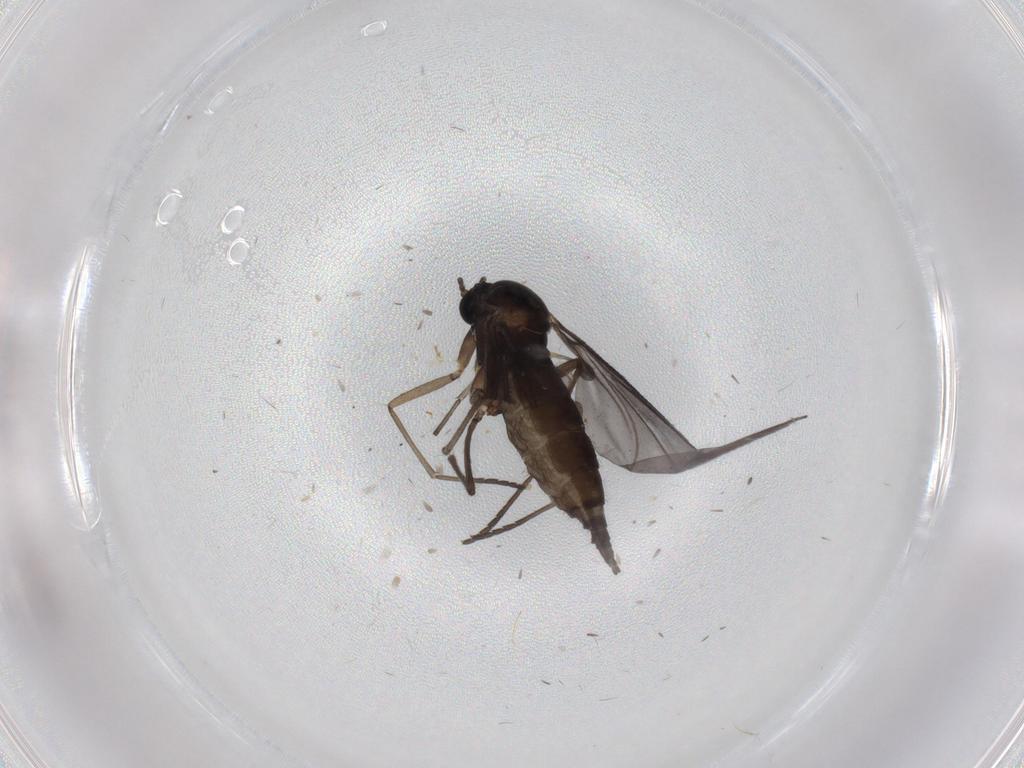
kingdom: Animalia
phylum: Arthropoda
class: Insecta
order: Diptera
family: Sciaridae
